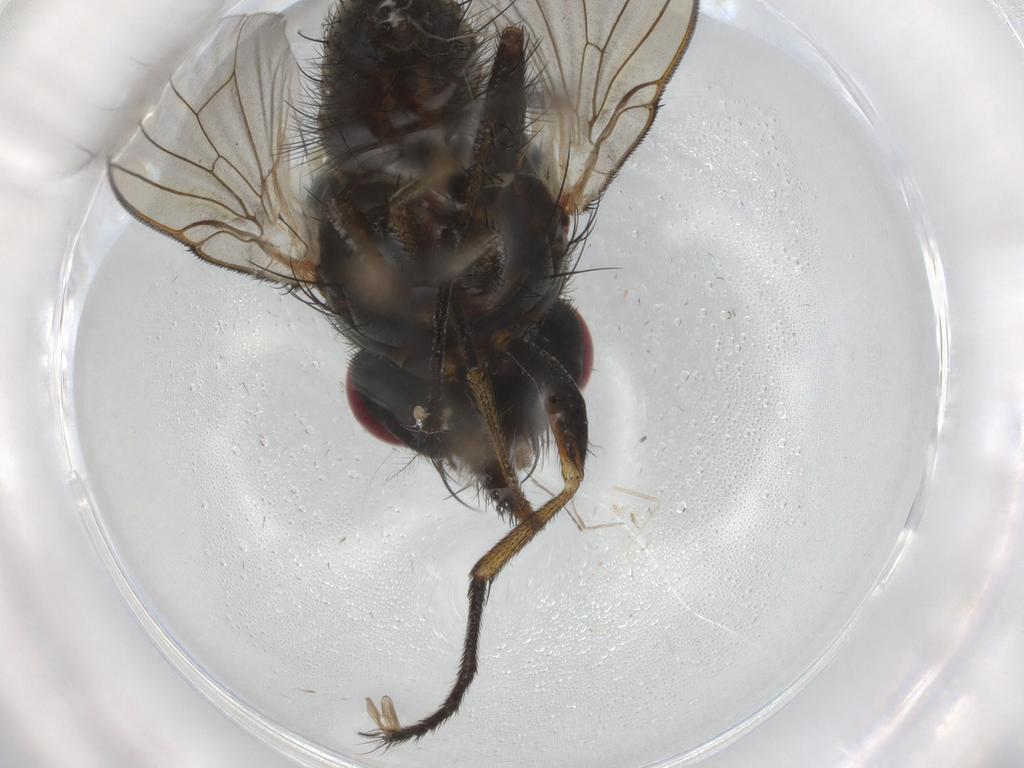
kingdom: Animalia
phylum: Arthropoda
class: Insecta
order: Diptera
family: Muscidae
